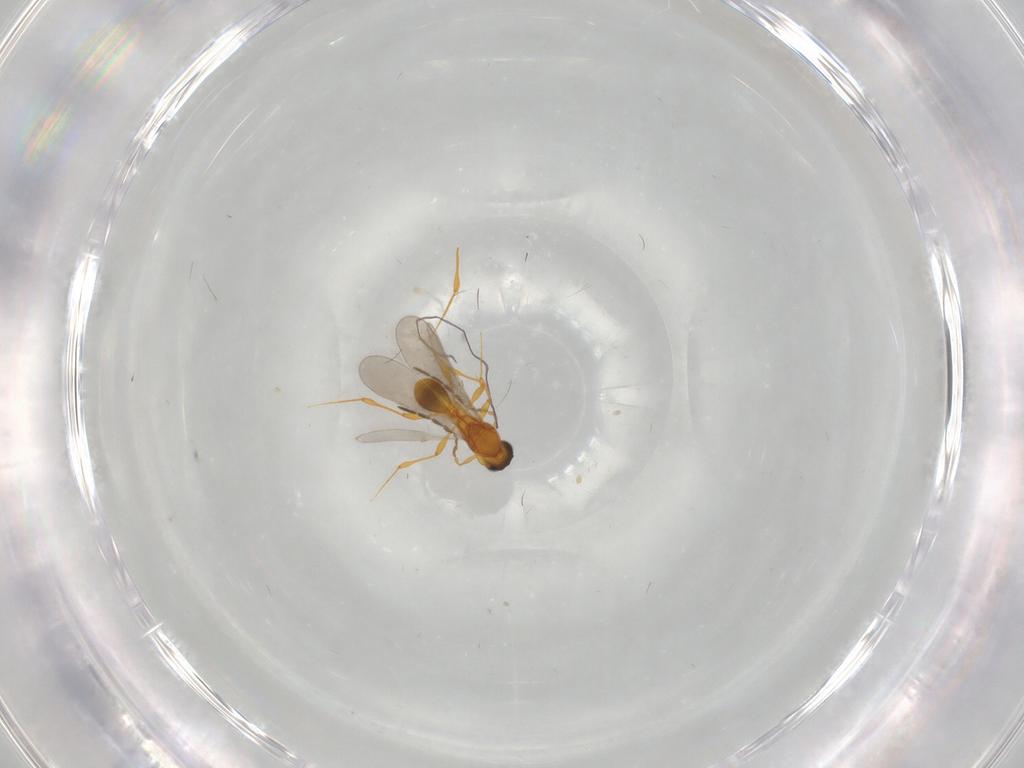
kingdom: Animalia
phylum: Arthropoda
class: Insecta
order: Hymenoptera
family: Platygastridae
